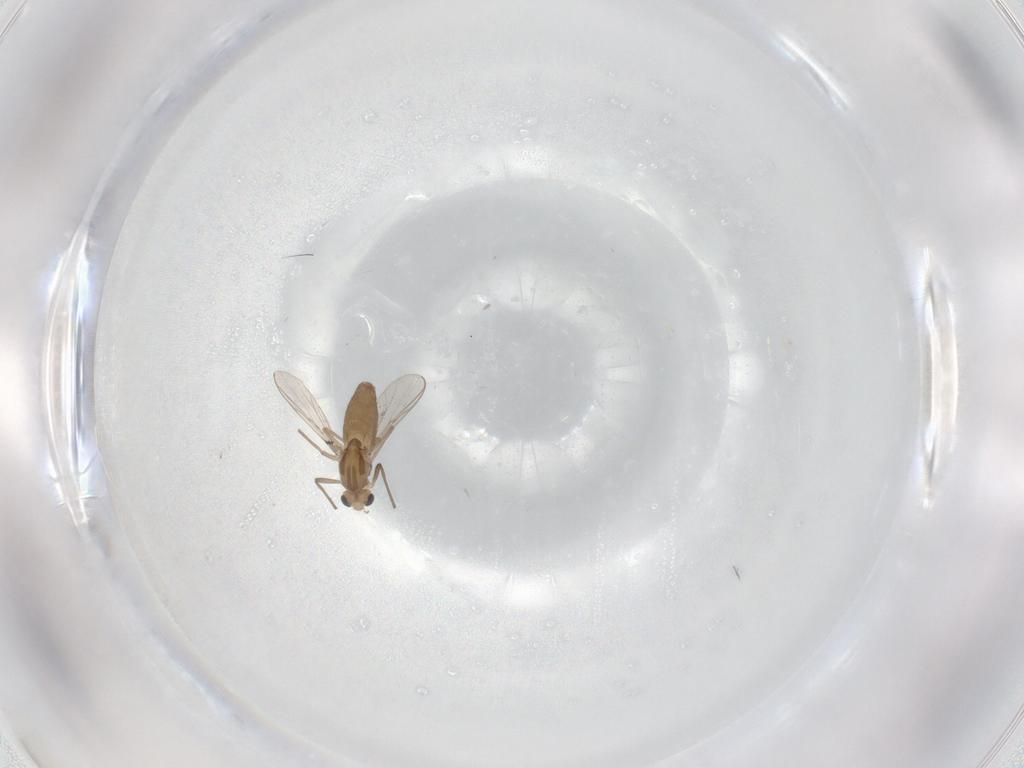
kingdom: Animalia
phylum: Arthropoda
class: Insecta
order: Diptera
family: Chironomidae
